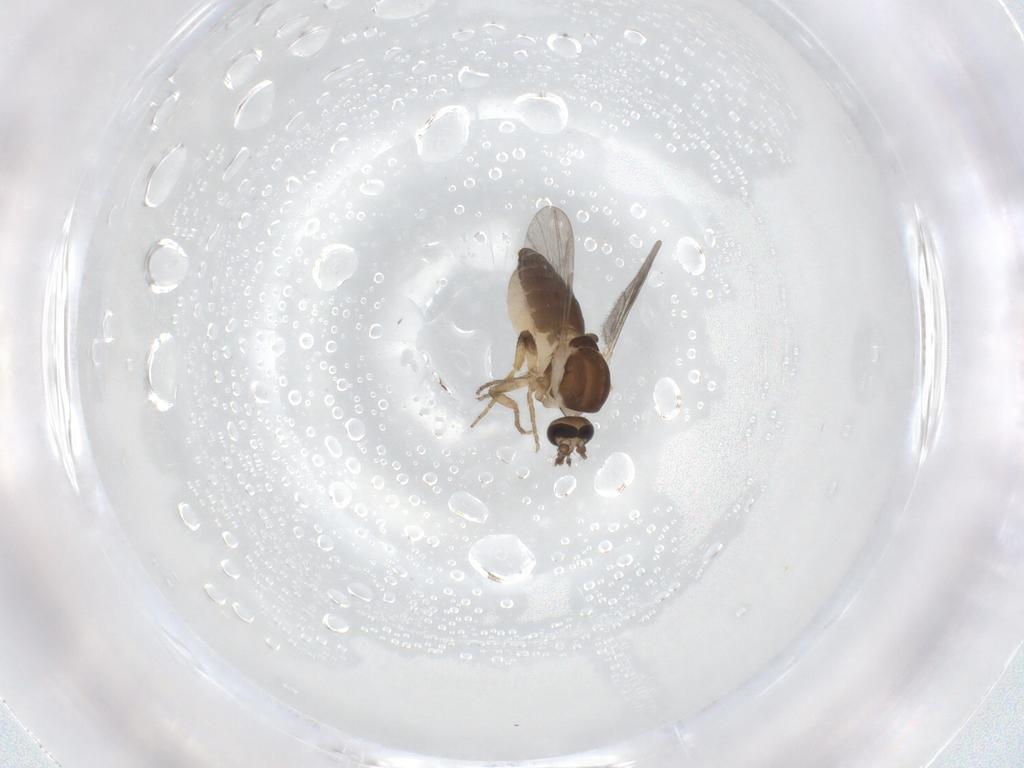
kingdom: Animalia
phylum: Arthropoda
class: Insecta
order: Diptera
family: Ceratopogonidae
